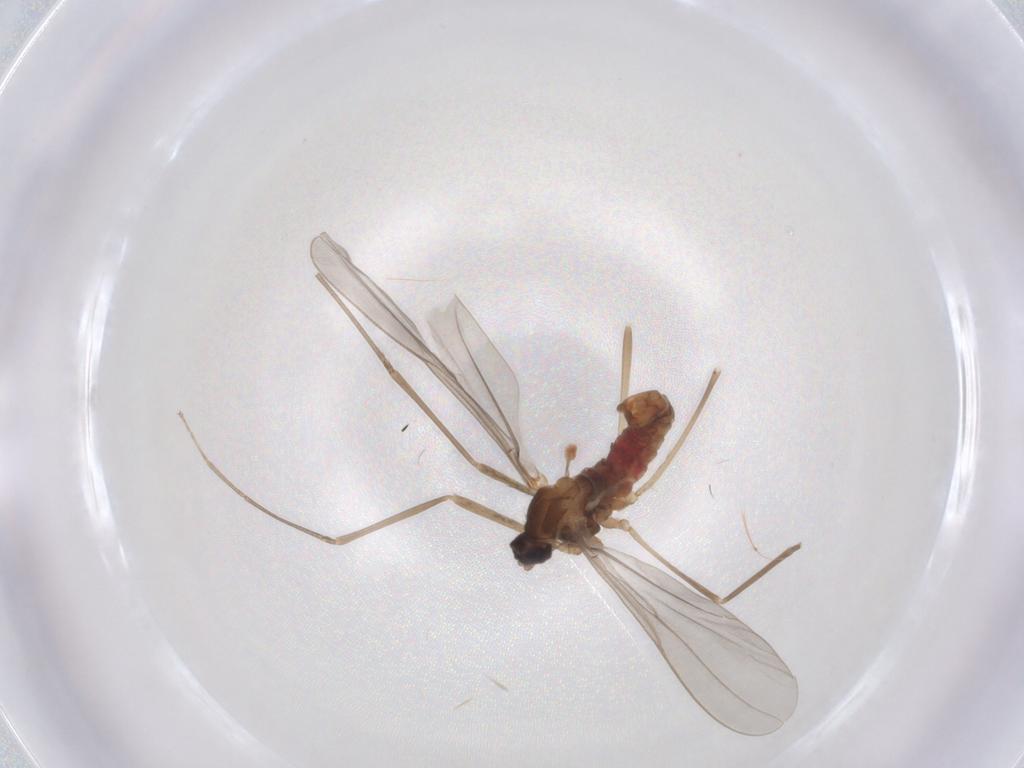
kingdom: Animalia
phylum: Arthropoda
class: Insecta
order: Diptera
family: Cecidomyiidae
